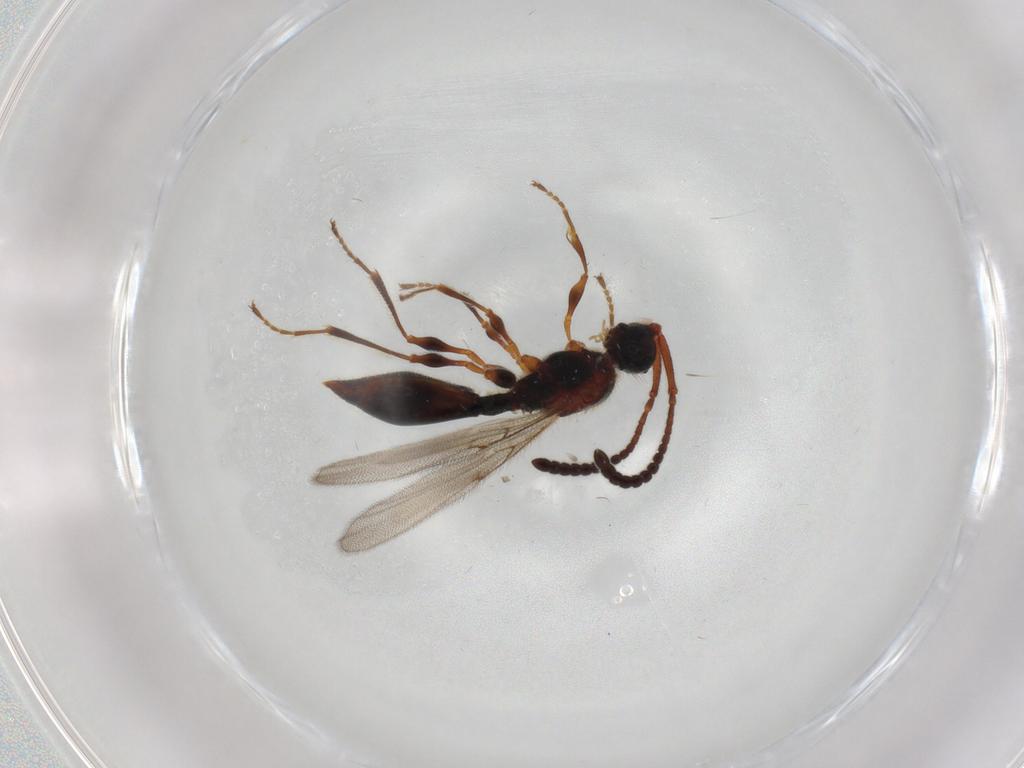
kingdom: Animalia
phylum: Arthropoda
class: Insecta
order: Hymenoptera
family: Diapriidae
